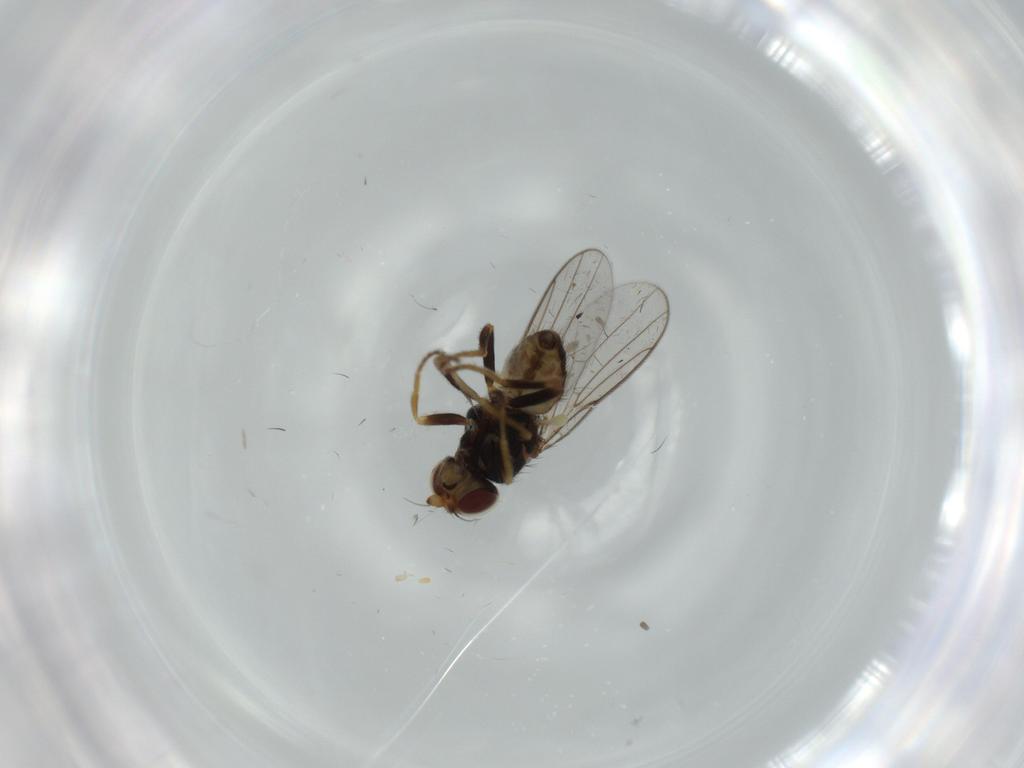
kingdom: Animalia
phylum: Arthropoda
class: Insecta
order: Diptera
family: Chloropidae
